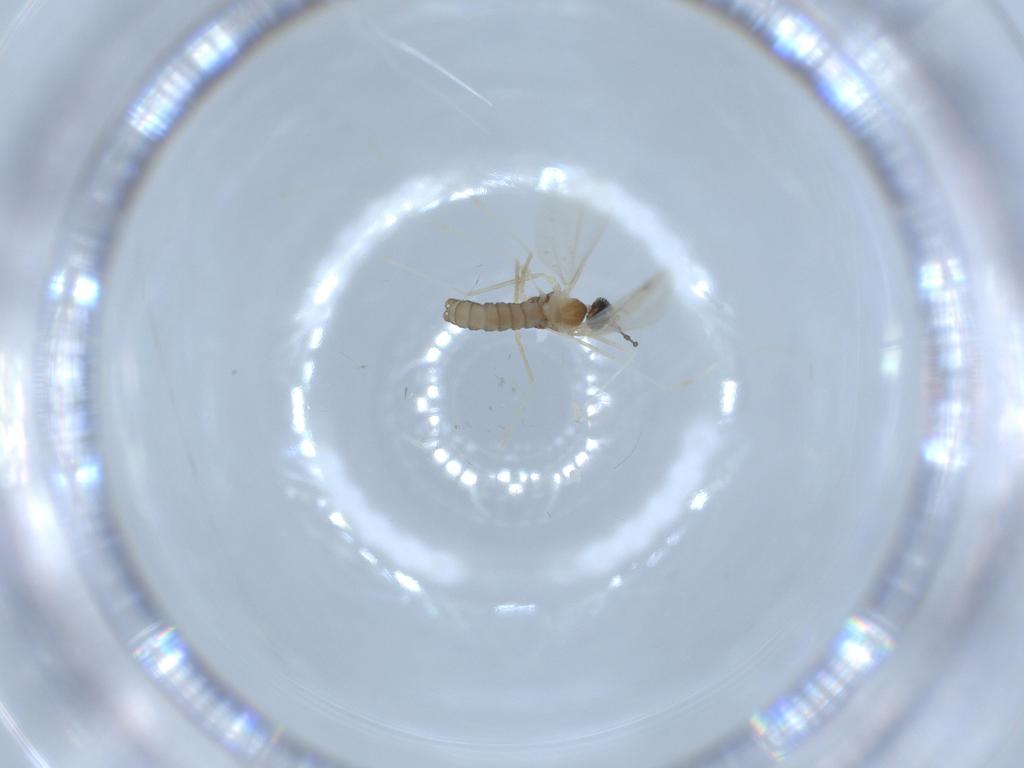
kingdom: Animalia
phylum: Arthropoda
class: Insecta
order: Diptera
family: Cecidomyiidae
